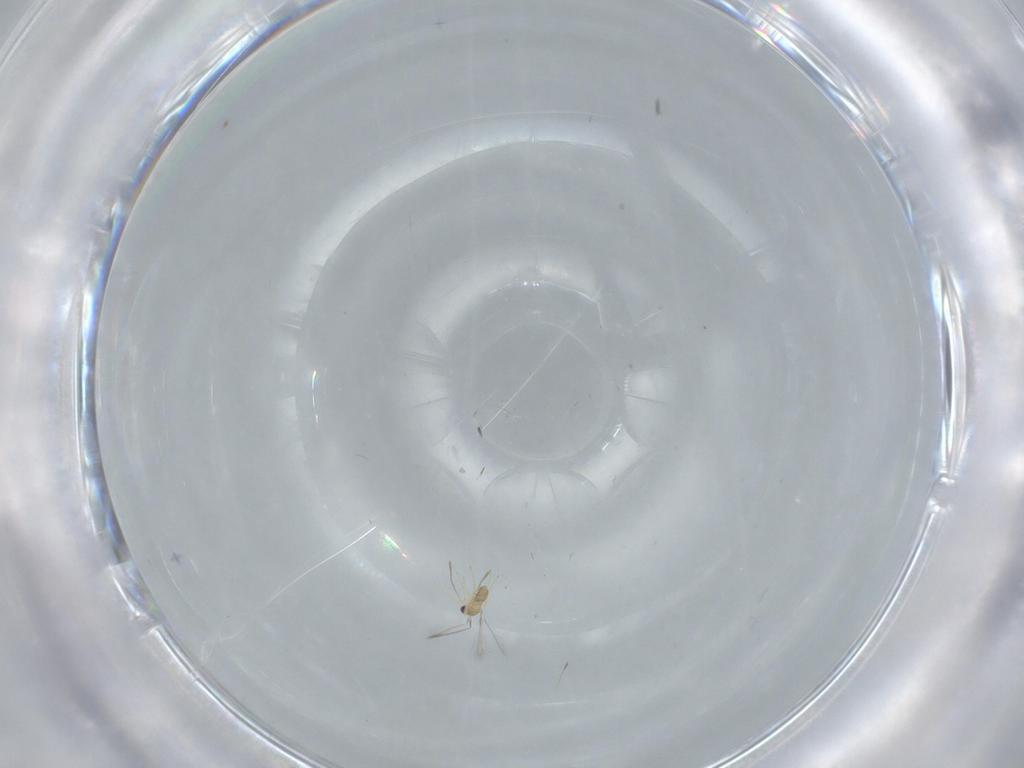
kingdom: Animalia
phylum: Arthropoda
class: Insecta
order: Hymenoptera
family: Mymaridae
